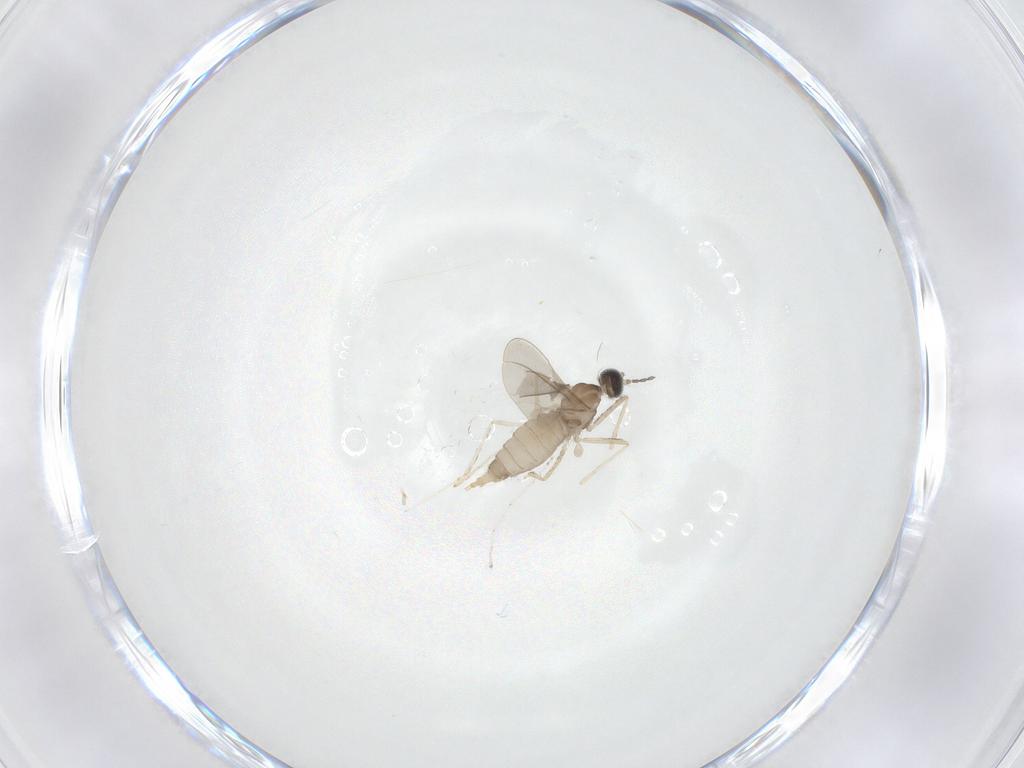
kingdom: Animalia
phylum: Arthropoda
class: Insecta
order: Diptera
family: Cecidomyiidae
